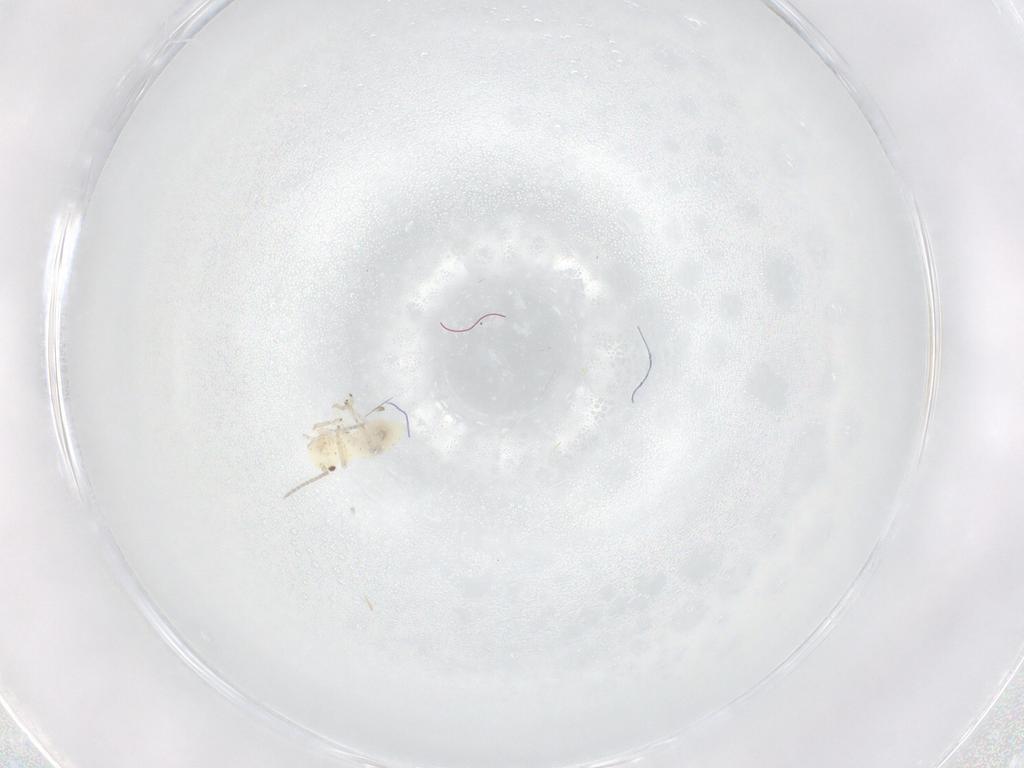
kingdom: Animalia
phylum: Arthropoda
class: Insecta
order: Psocodea
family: Caeciliusidae
